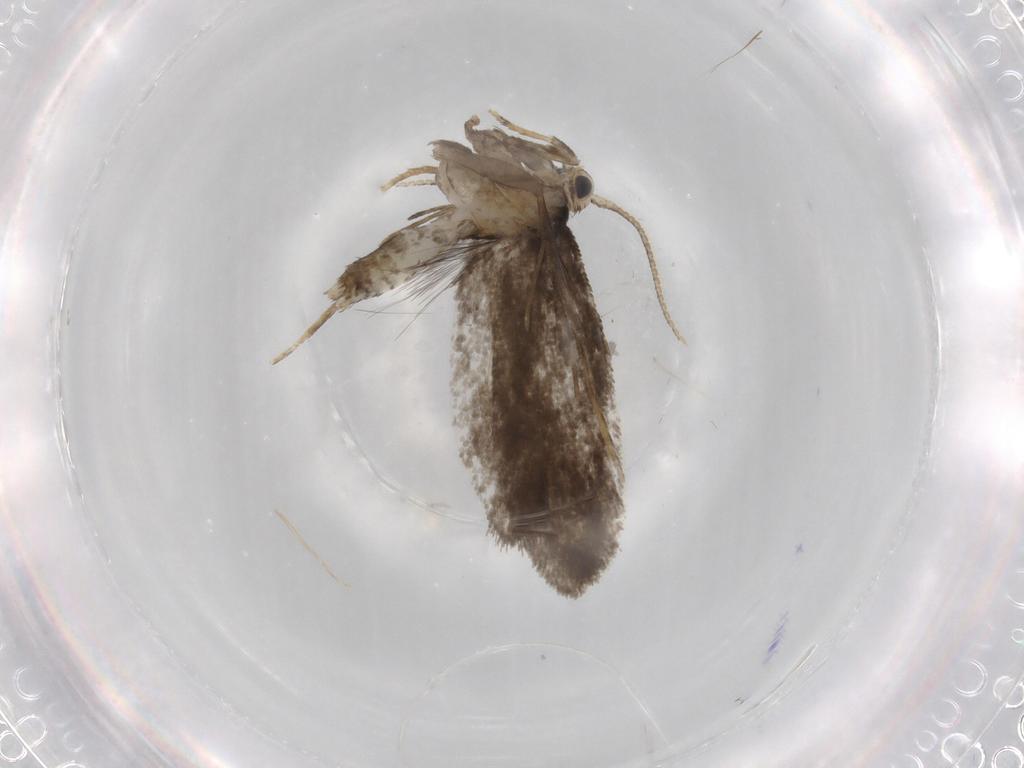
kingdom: Animalia
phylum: Arthropoda
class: Insecta
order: Lepidoptera
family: Psychidae
